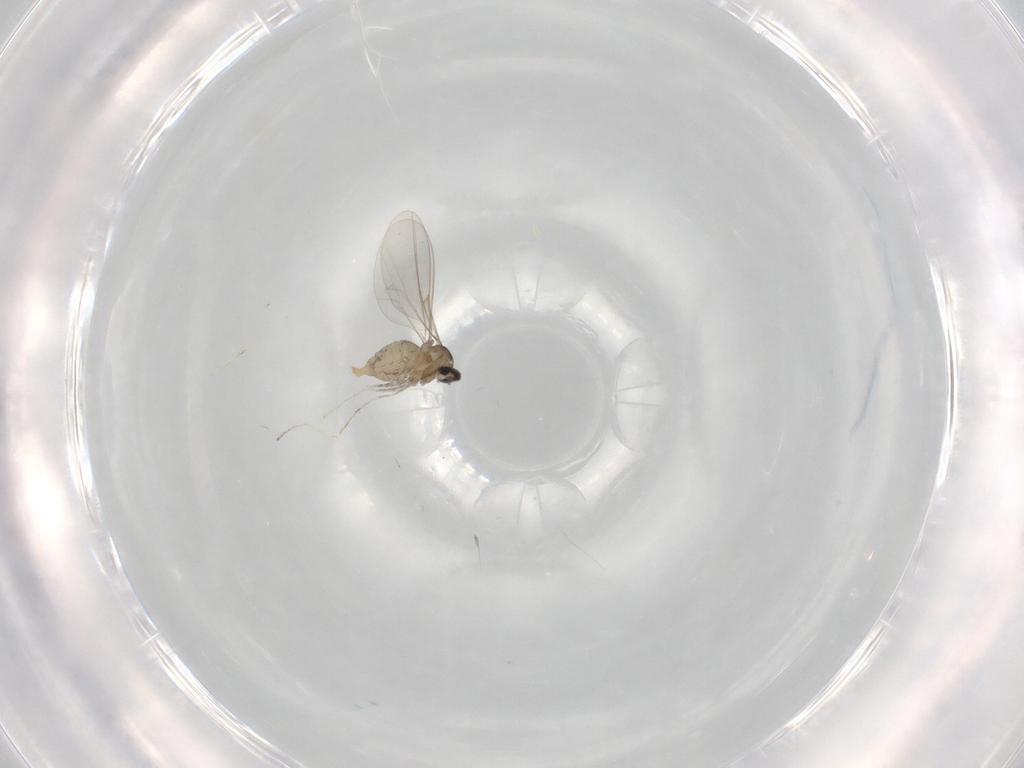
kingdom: Animalia
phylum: Arthropoda
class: Insecta
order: Diptera
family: Sphaeroceridae
